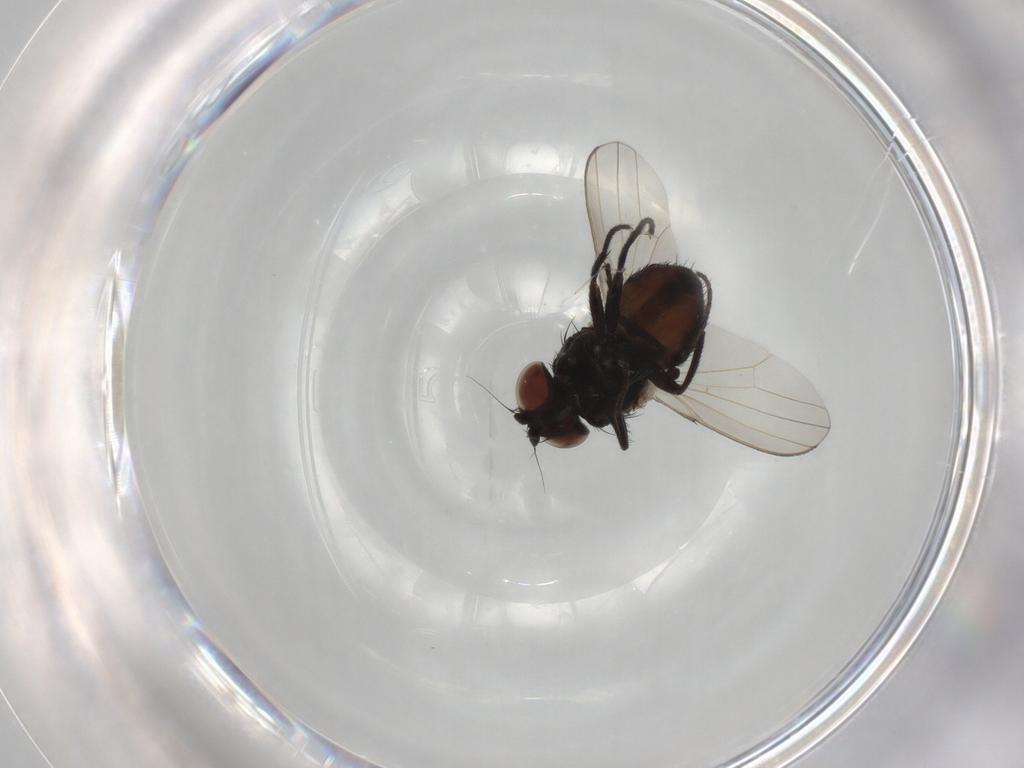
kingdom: Animalia
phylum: Arthropoda
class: Insecta
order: Diptera
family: Milichiidae
